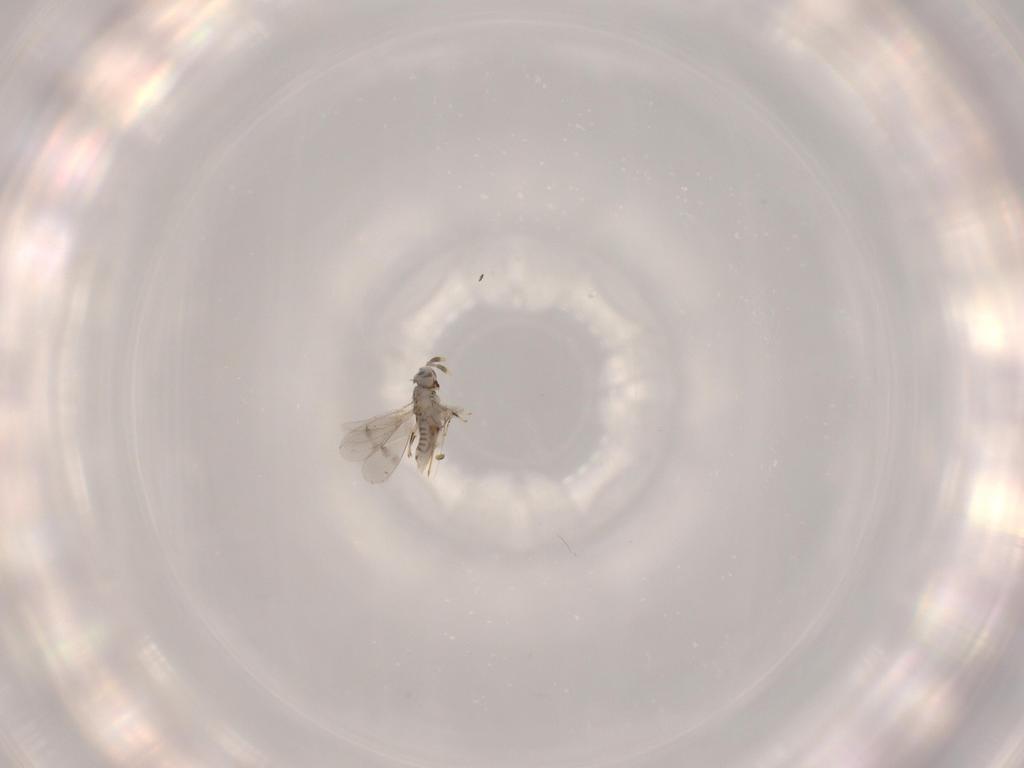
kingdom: Animalia
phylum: Arthropoda
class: Insecta
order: Hymenoptera
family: Aphelinidae
